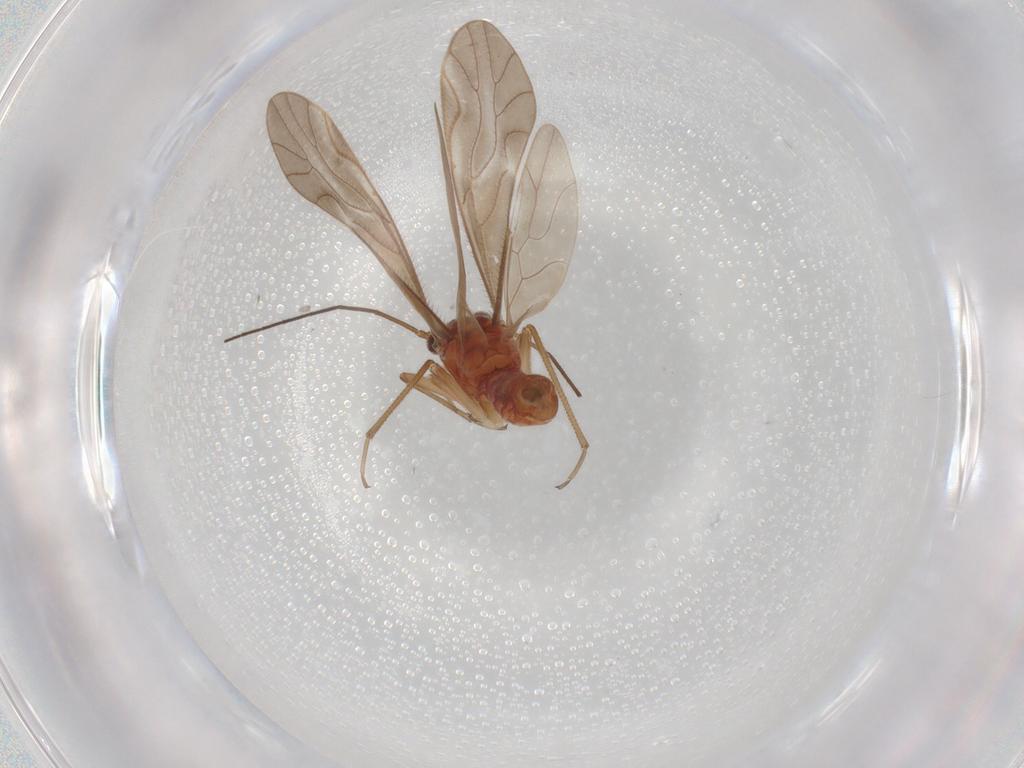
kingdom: Animalia
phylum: Arthropoda
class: Insecta
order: Psocodea
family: Caeciliusidae
